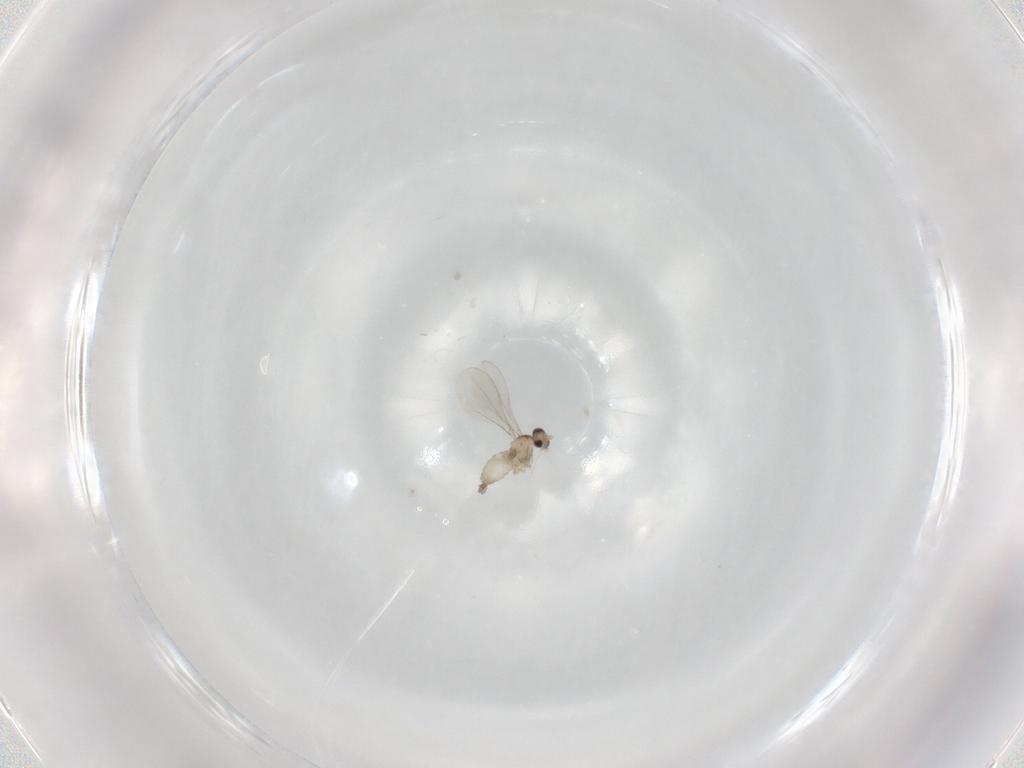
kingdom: Animalia
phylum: Arthropoda
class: Insecta
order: Diptera
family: Cecidomyiidae
